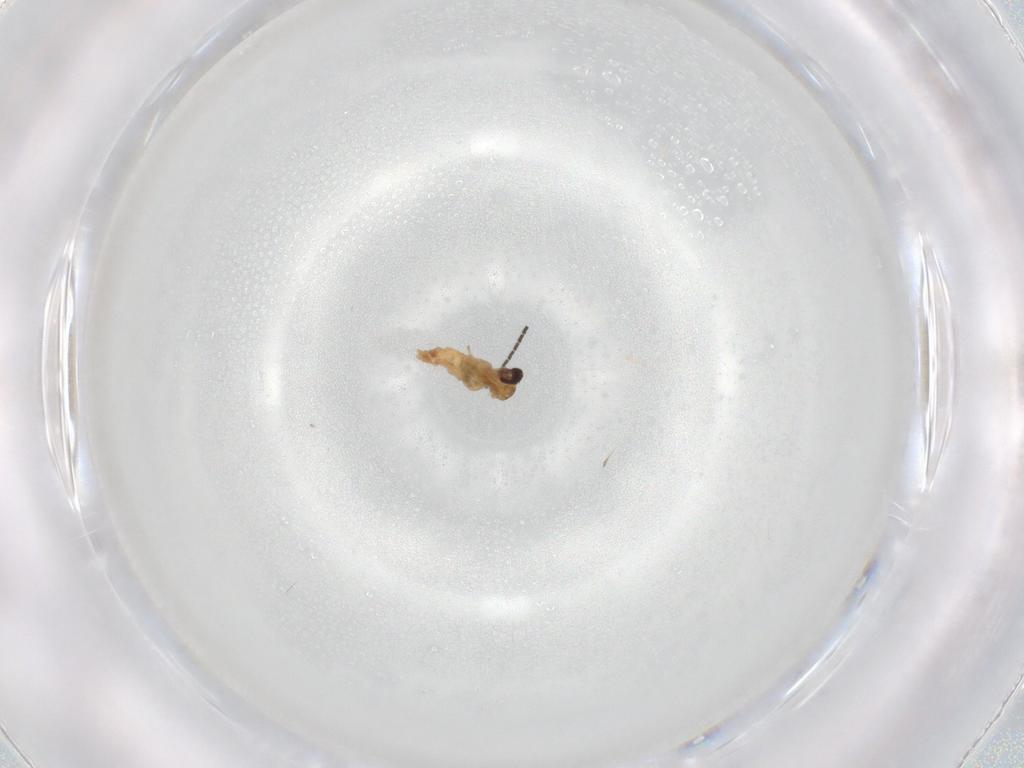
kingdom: Animalia
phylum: Arthropoda
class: Insecta
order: Diptera
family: Sciaridae
